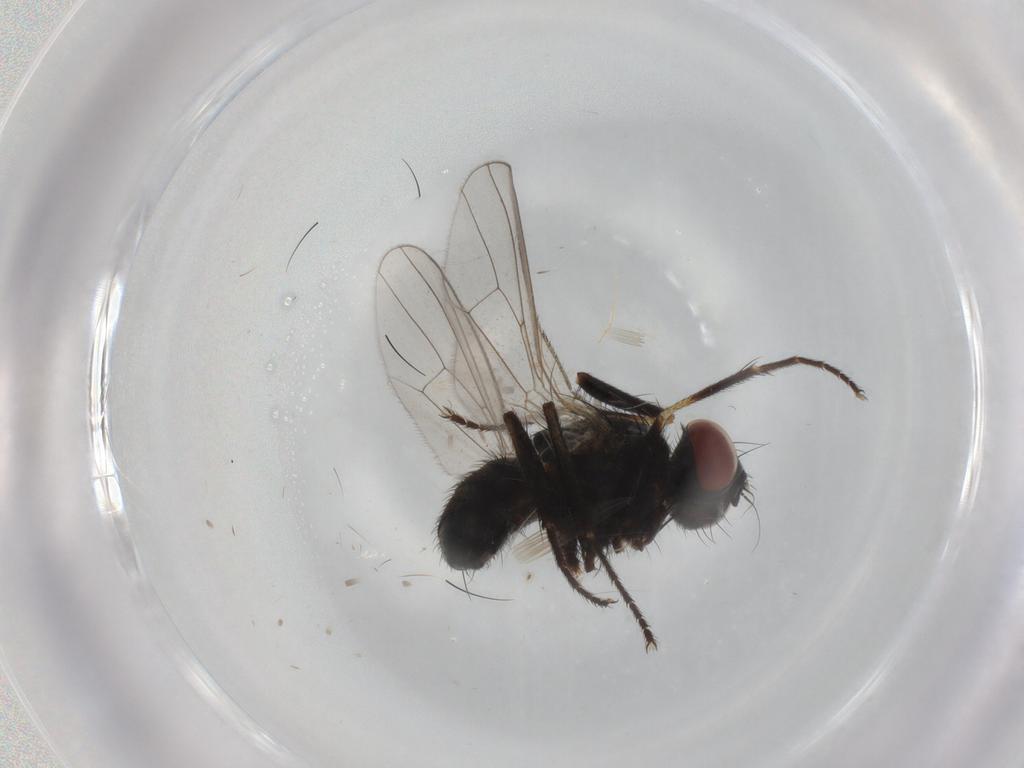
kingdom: Animalia
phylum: Arthropoda
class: Insecta
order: Diptera
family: Muscidae
